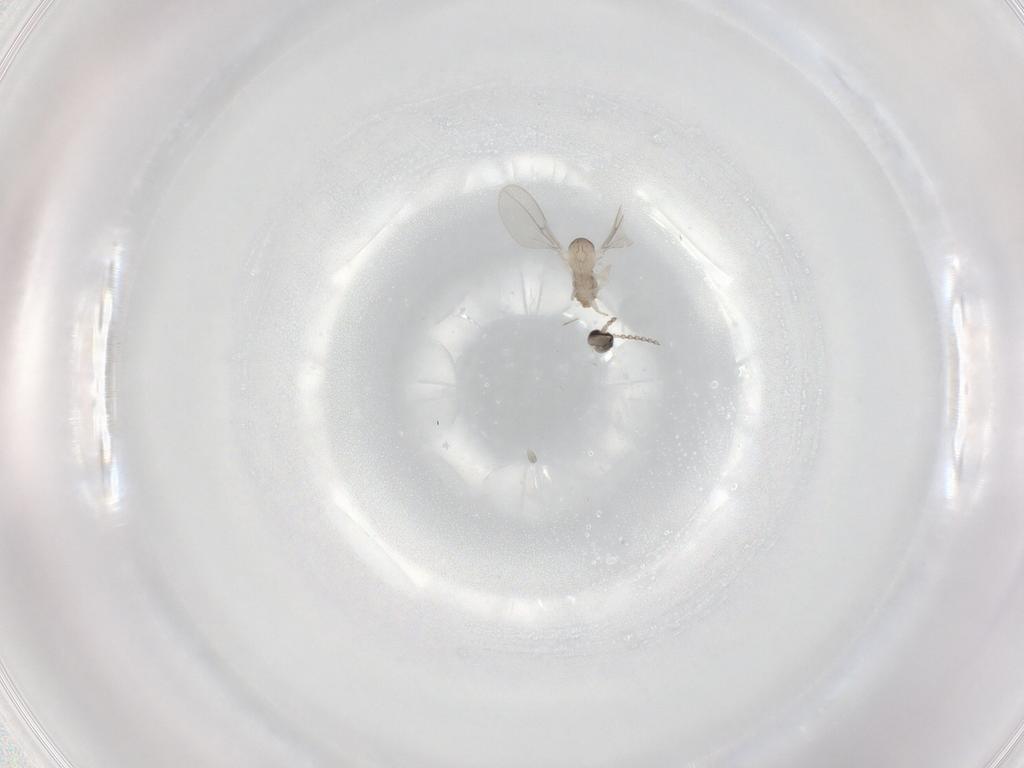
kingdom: Animalia
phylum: Arthropoda
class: Insecta
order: Diptera
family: Cecidomyiidae
